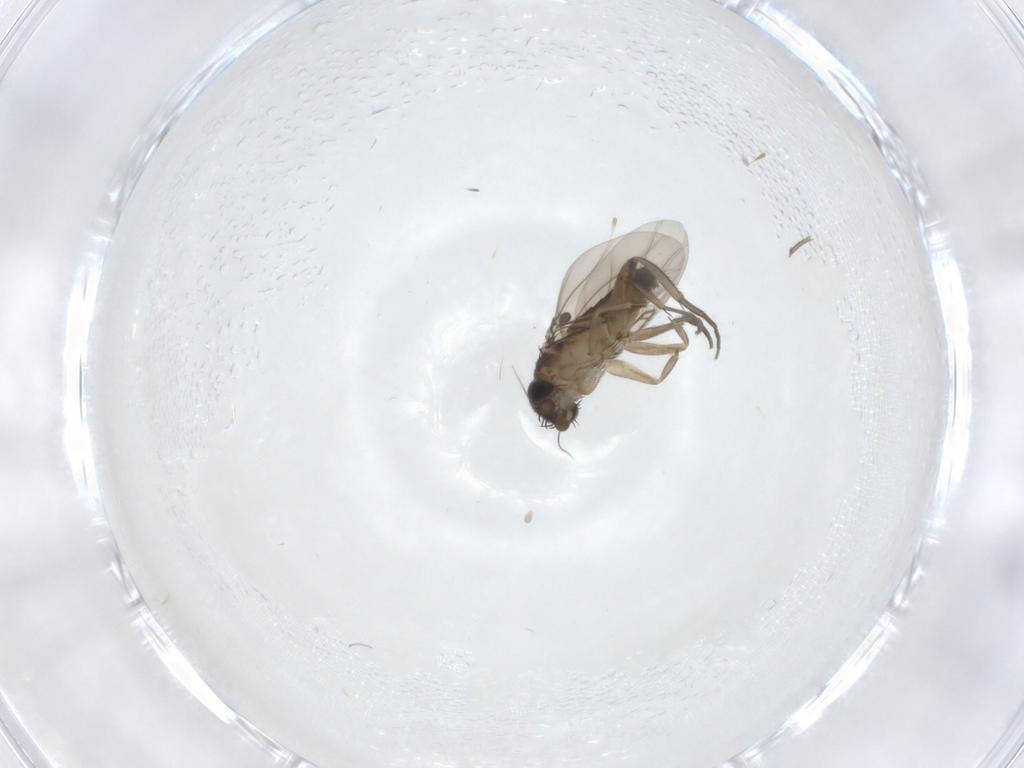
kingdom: Animalia
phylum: Arthropoda
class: Insecta
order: Diptera
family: Phoridae
